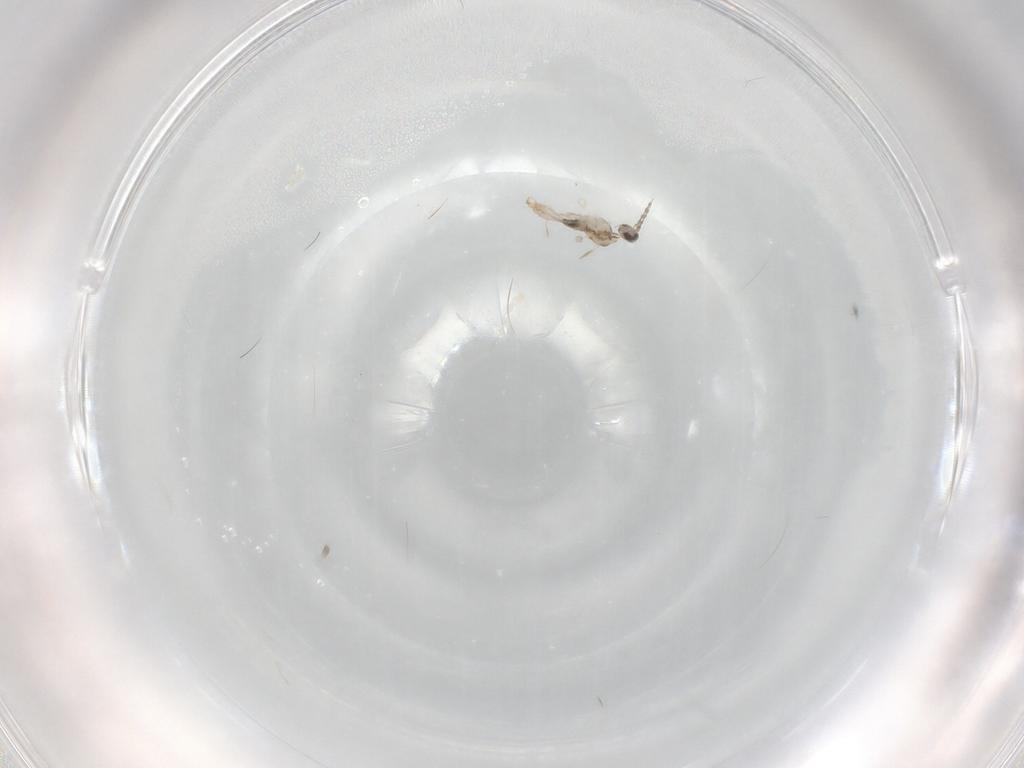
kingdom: Animalia
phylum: Arthropoda
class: Insecta
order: Diptera
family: Cecidomyiidae
